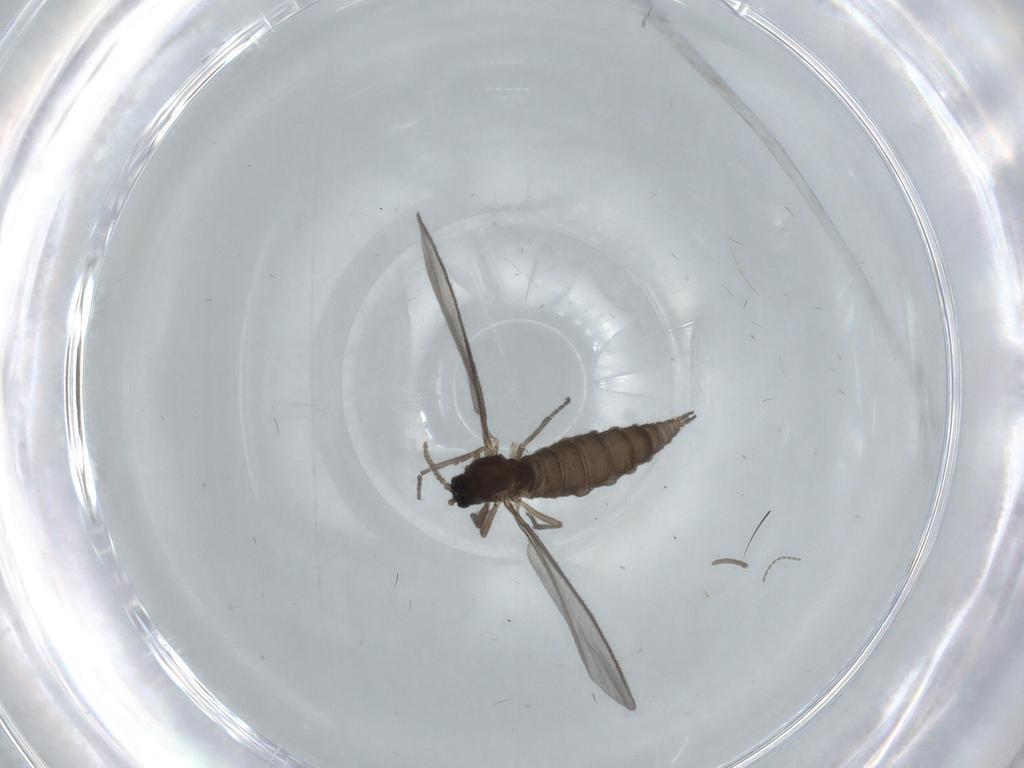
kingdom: Animalia
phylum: Arthropoda
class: Insecta
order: Diptera
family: Sciaridae
